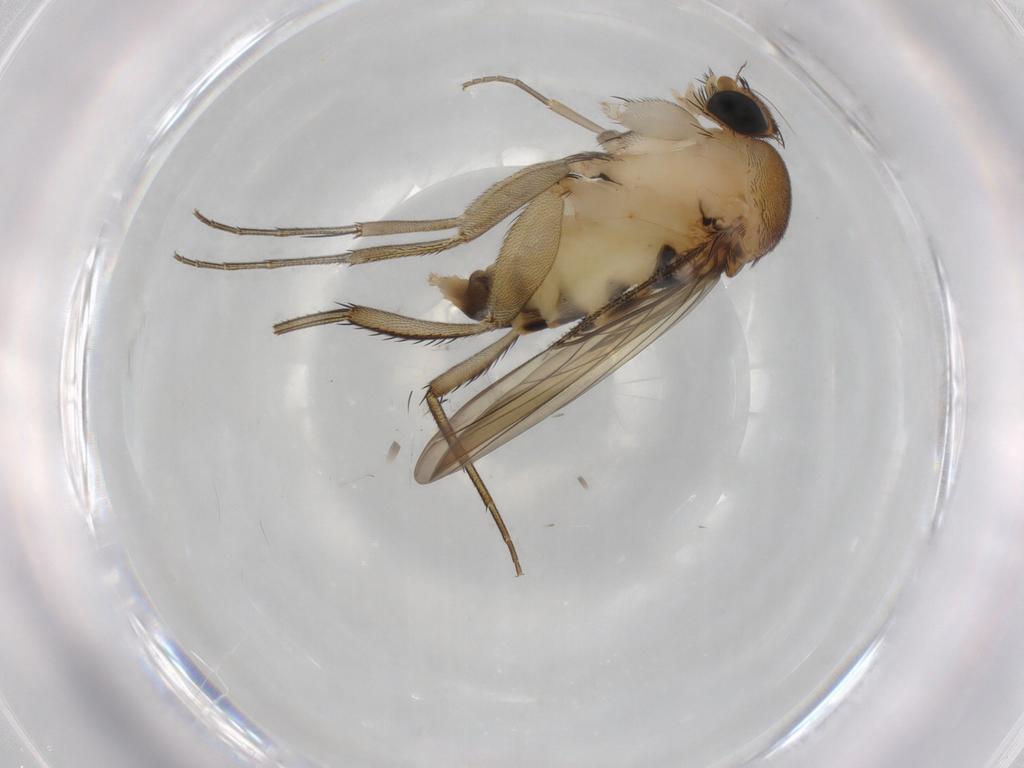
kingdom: Animalia
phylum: Arthropoda
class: Insecta
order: Diptera
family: Phoridae
